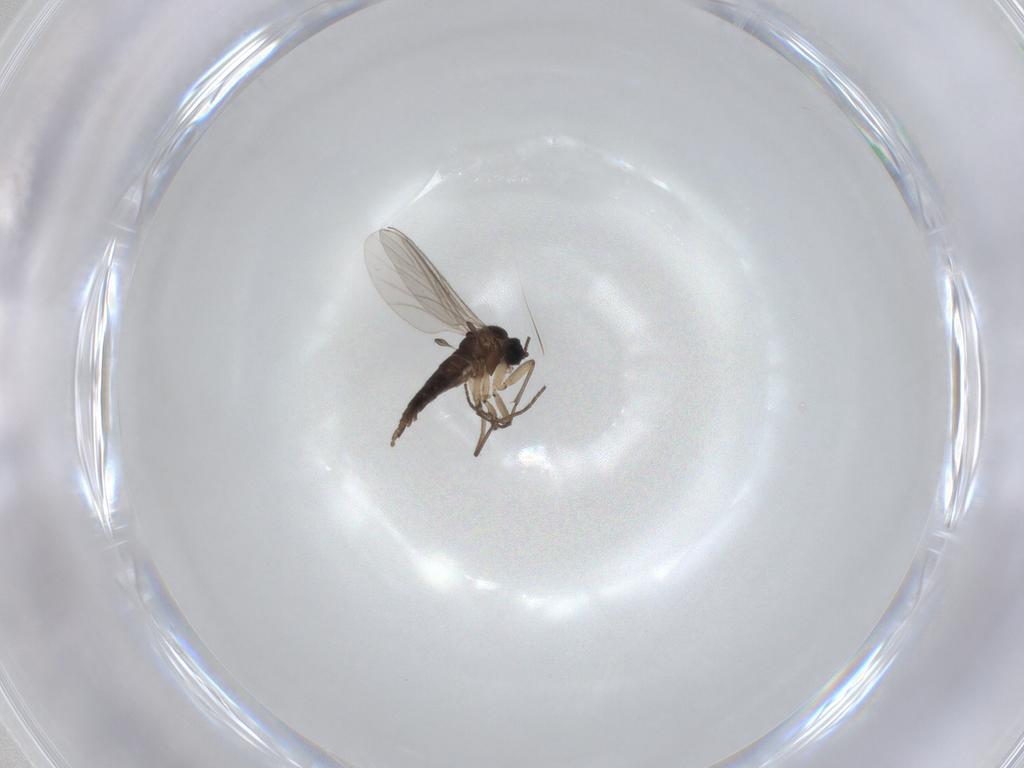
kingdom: Animalia
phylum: Arthropoda
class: Insecta
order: Diptera
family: Sciaridae
